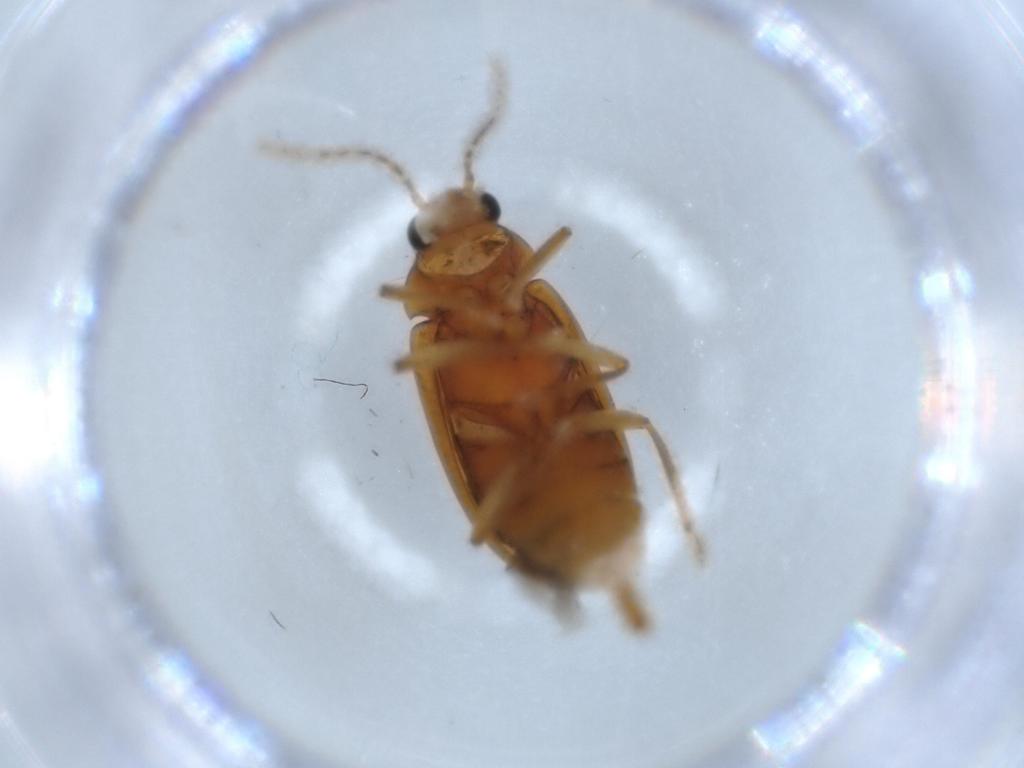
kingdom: Animalia
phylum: Arthropoda
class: Insecta
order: Coleoptera
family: Ptilodactylidae
